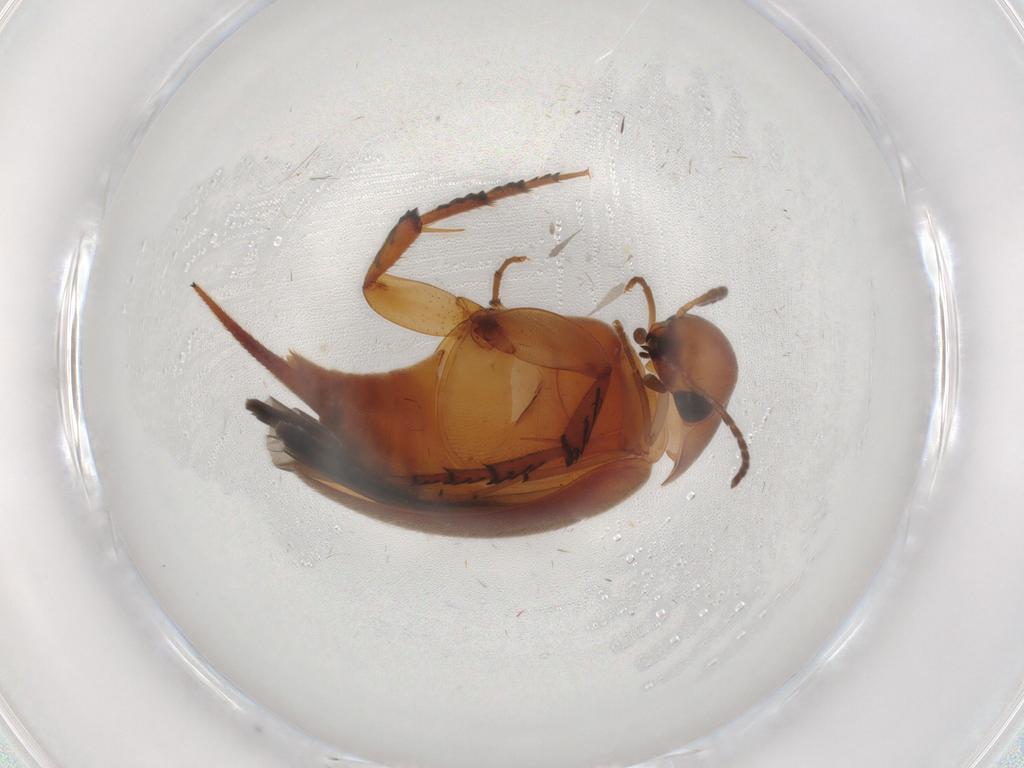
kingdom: Animalia
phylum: Arthropoda
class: Insecta
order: Coleoptera
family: Mordellidae
